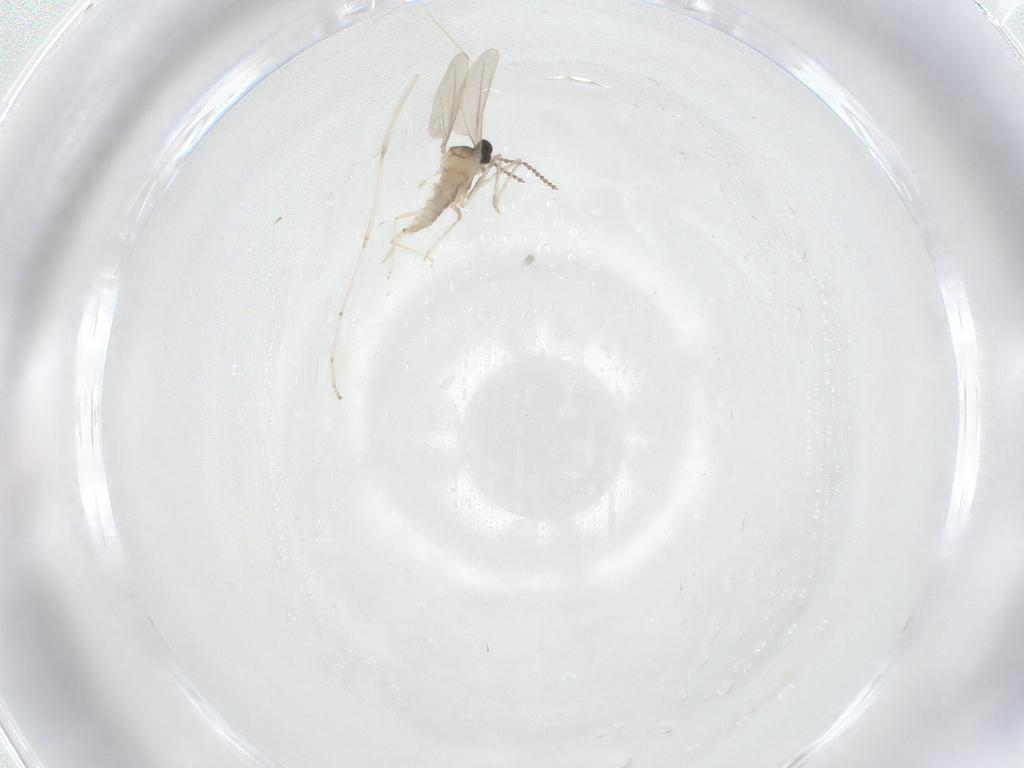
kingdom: Animalia
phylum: Arthropoda
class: Insecta
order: Diptera
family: Cecidomyiidae
